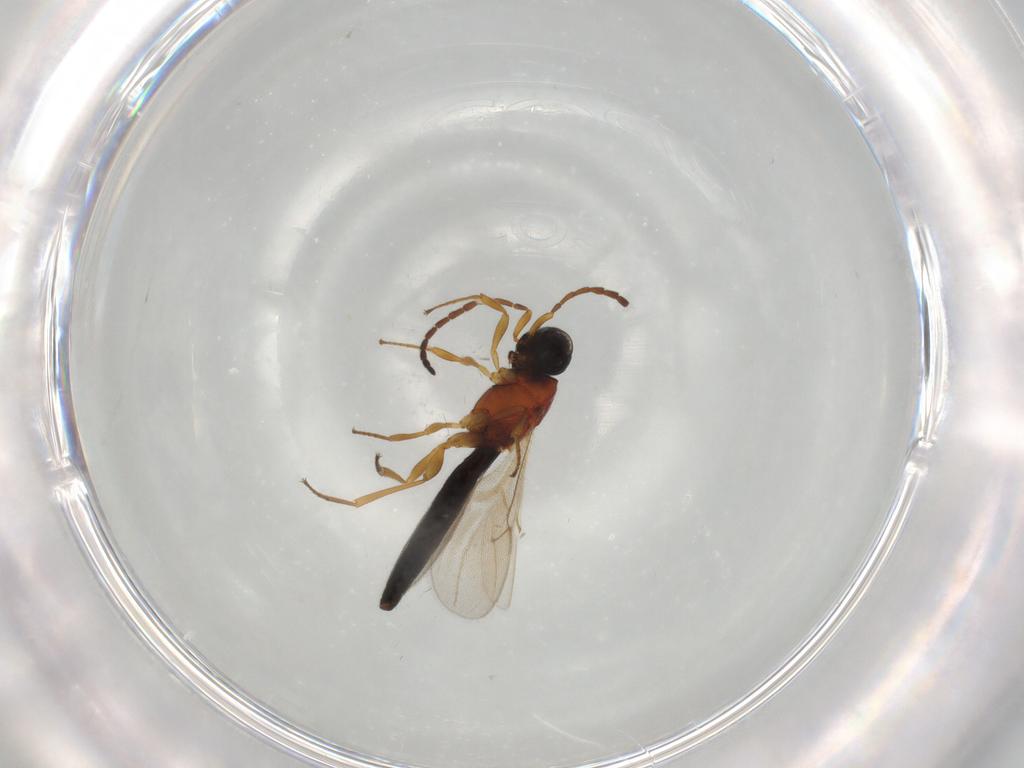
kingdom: Animalia
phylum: Arthropoda
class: Insecta
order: Hymenoptera
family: Scelionidae
